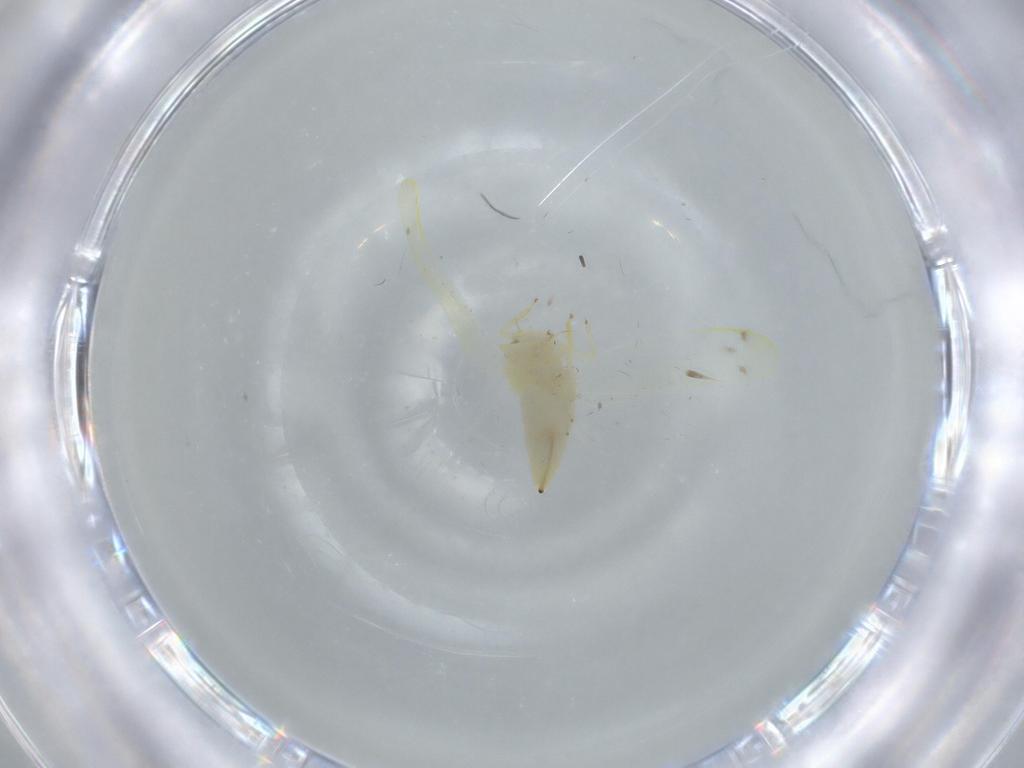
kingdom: Animalia
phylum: Arthropoda
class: Insecta
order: Hemiptera
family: Cicadellidae
